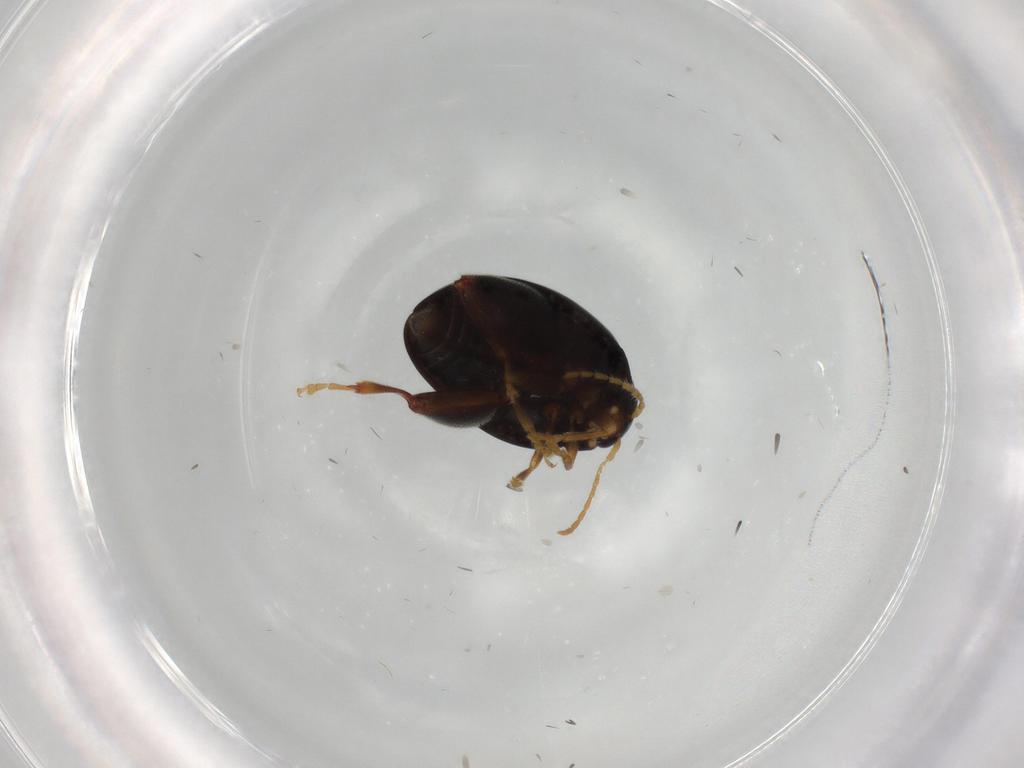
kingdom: Animalia
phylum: Arthropoda
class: Insecta
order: Coleoptera
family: Chrysomelidae
